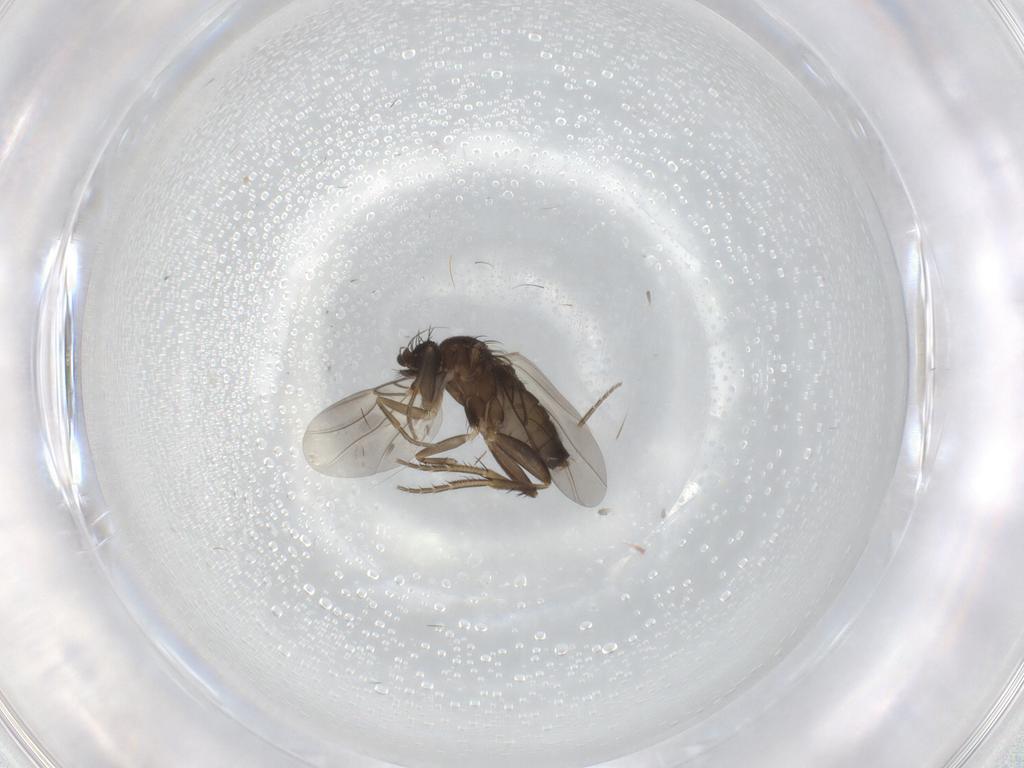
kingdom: Animalia
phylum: Arthropoda
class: Insecta
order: Diptera
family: Phoridae
